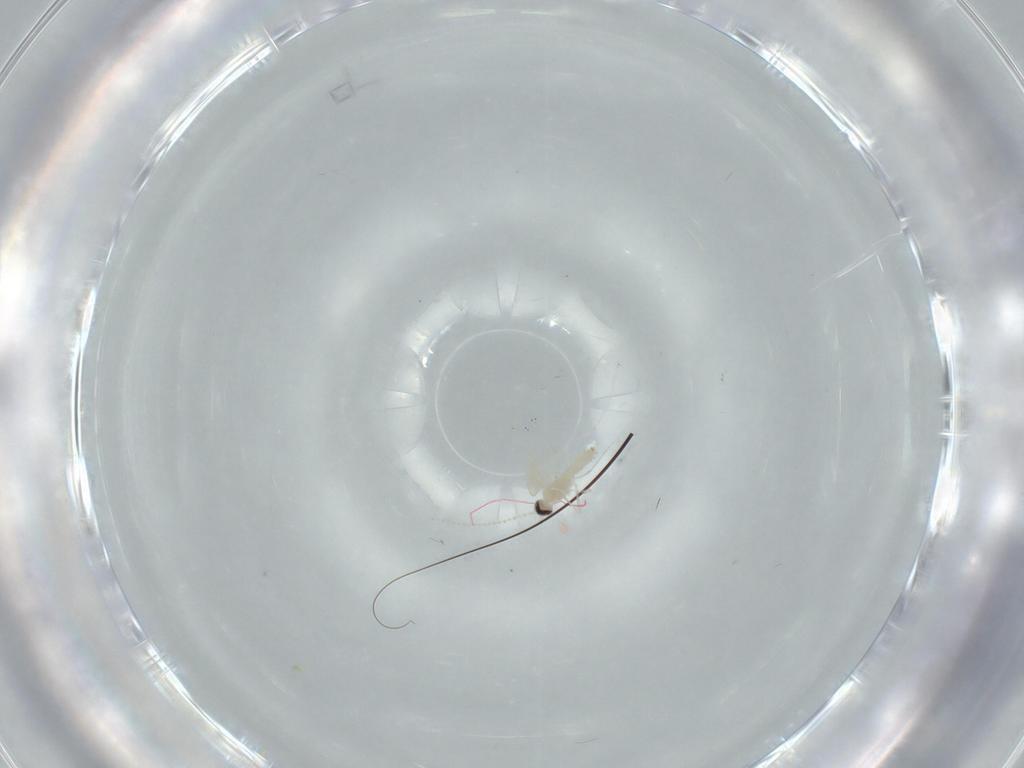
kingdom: Animalia
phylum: Arthropoda
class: Insecta
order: Diptera
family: Cecidomyiidae
